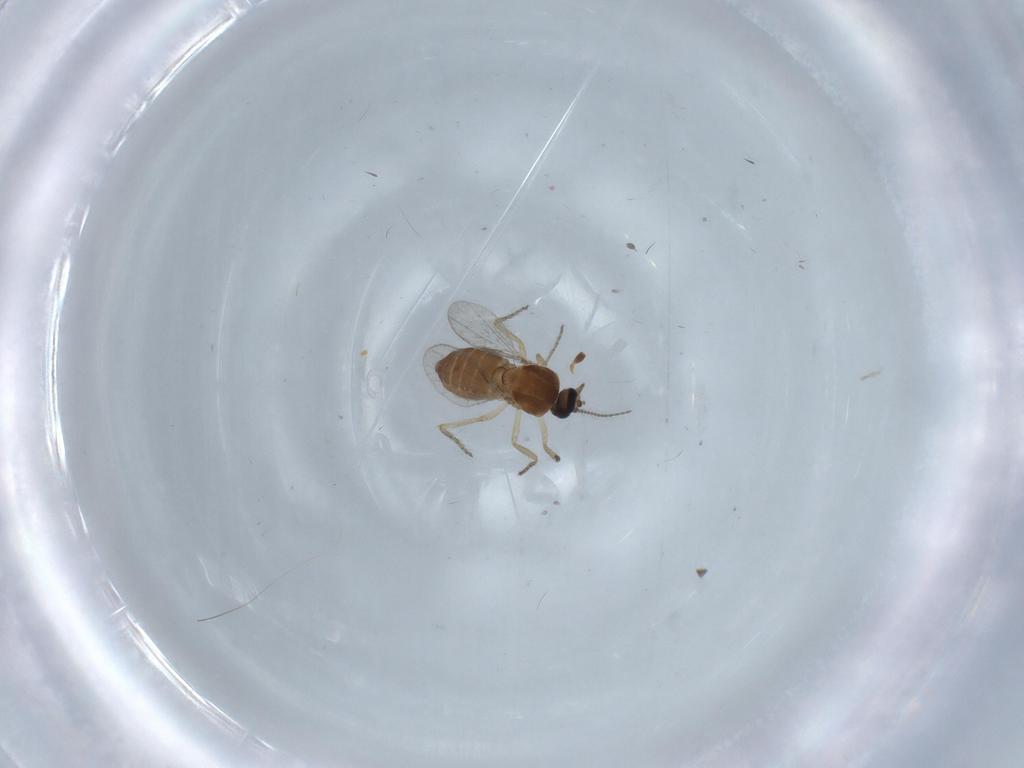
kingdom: Animalia
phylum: Arthropoda
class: Insecta
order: Diptera
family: Ceratopogonidae
